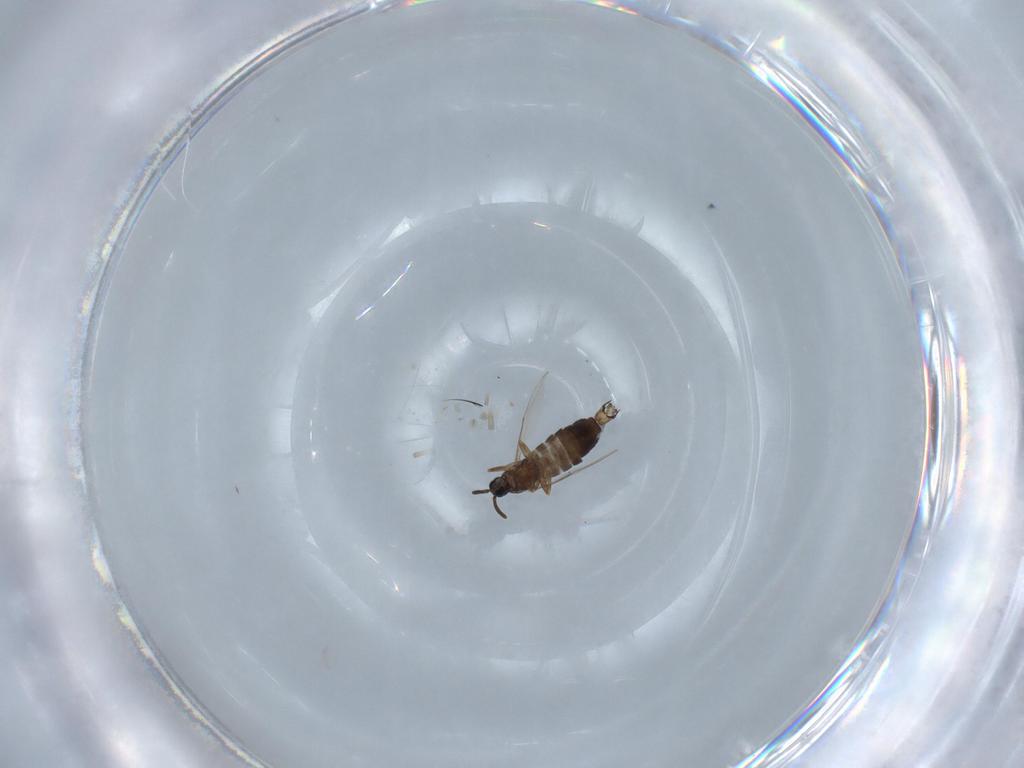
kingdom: Animalia
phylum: Arthropoda
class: Insecta
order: Diptera
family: Scatopsidae
